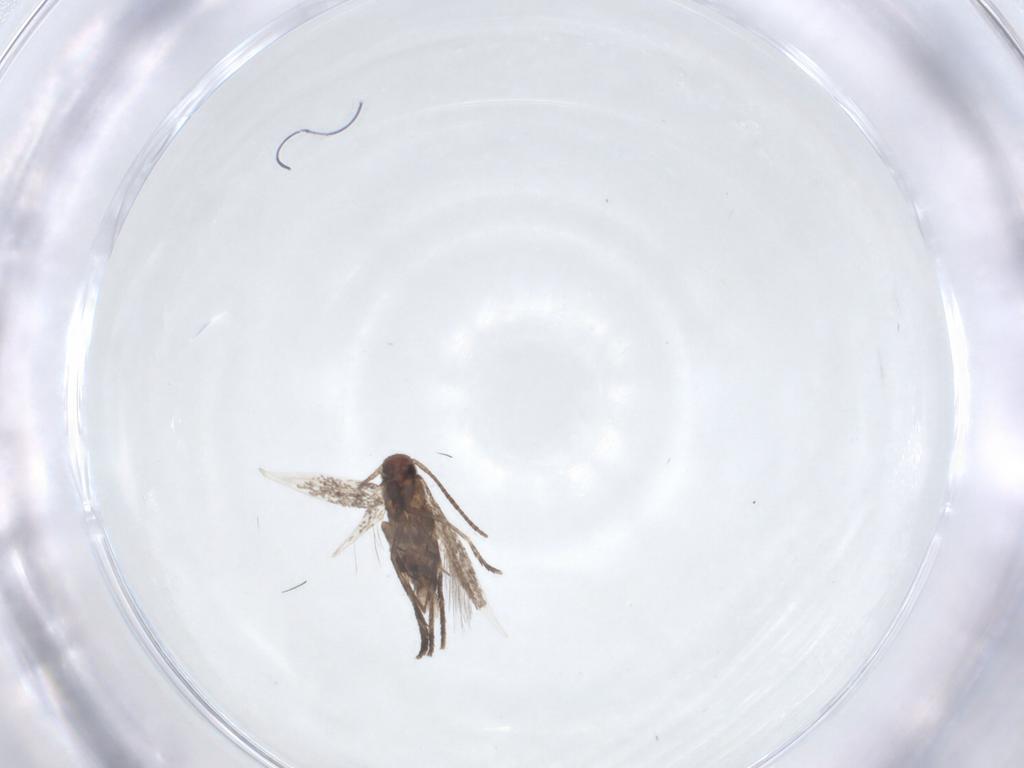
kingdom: Animalia
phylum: Arthropoda
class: Insecta
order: Lepidoptera
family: Gracillariidae
